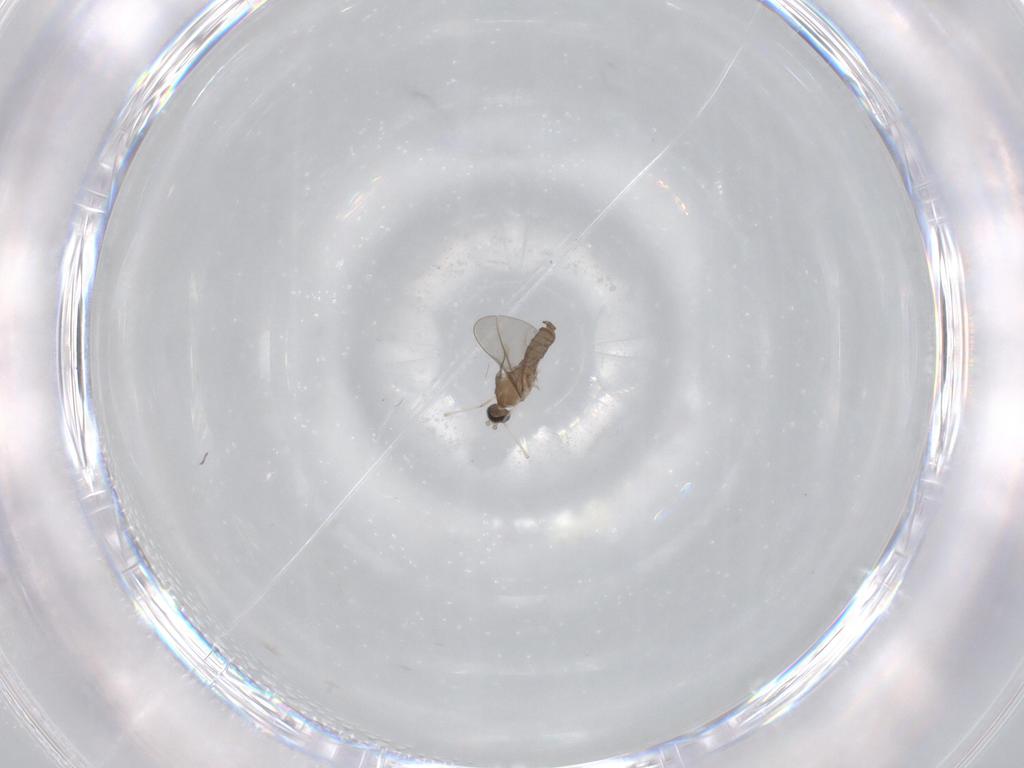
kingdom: Animalia
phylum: Arthropoda
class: Insecta
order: Diptera
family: Cecidomyiidae
